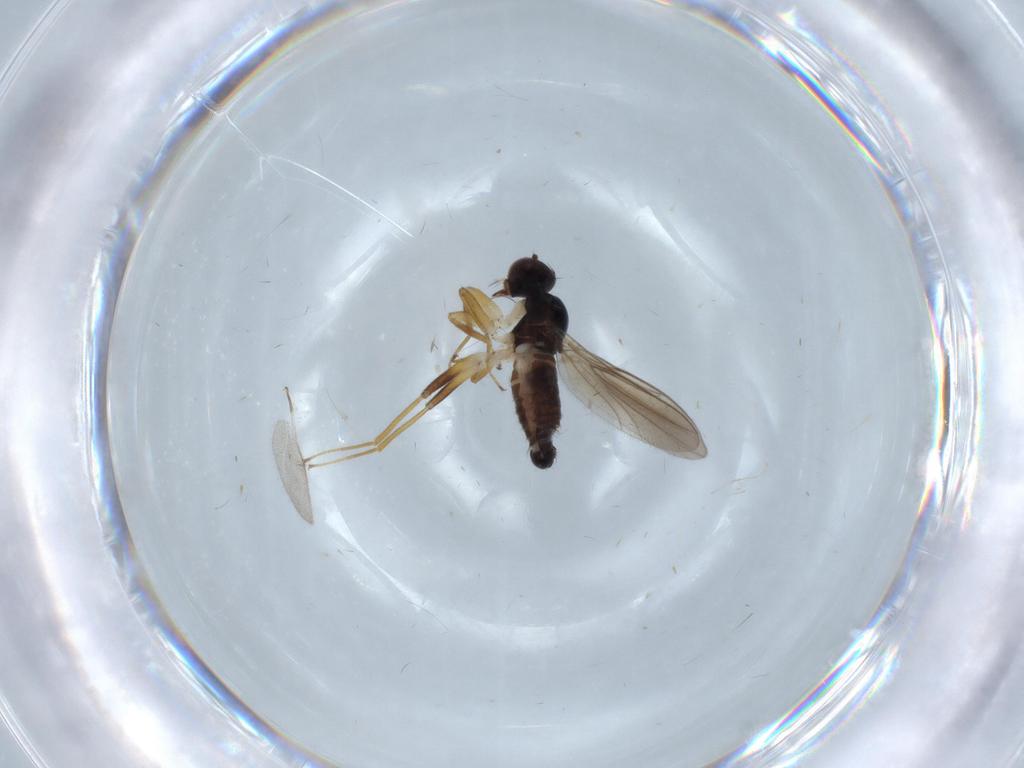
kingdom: Animalia
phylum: Arthropoda
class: Insecta
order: Diptera
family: Hybotidae
